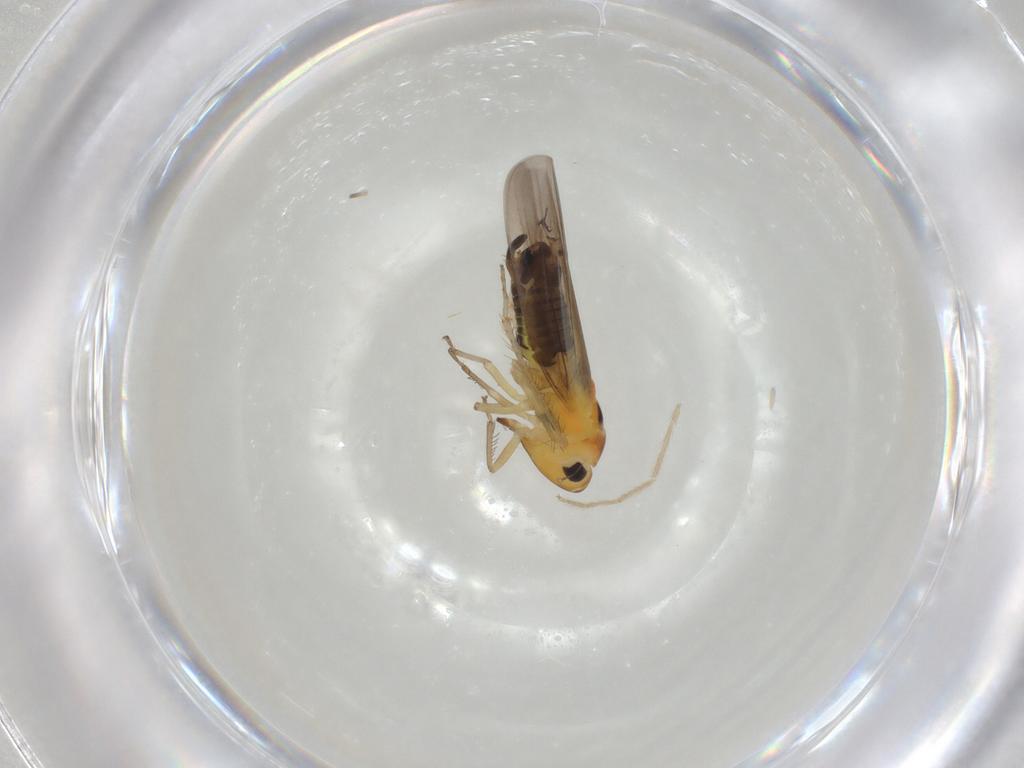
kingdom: Animalia
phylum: Arthropoda
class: Insecta
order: Hemiptera
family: Cicadellidae
